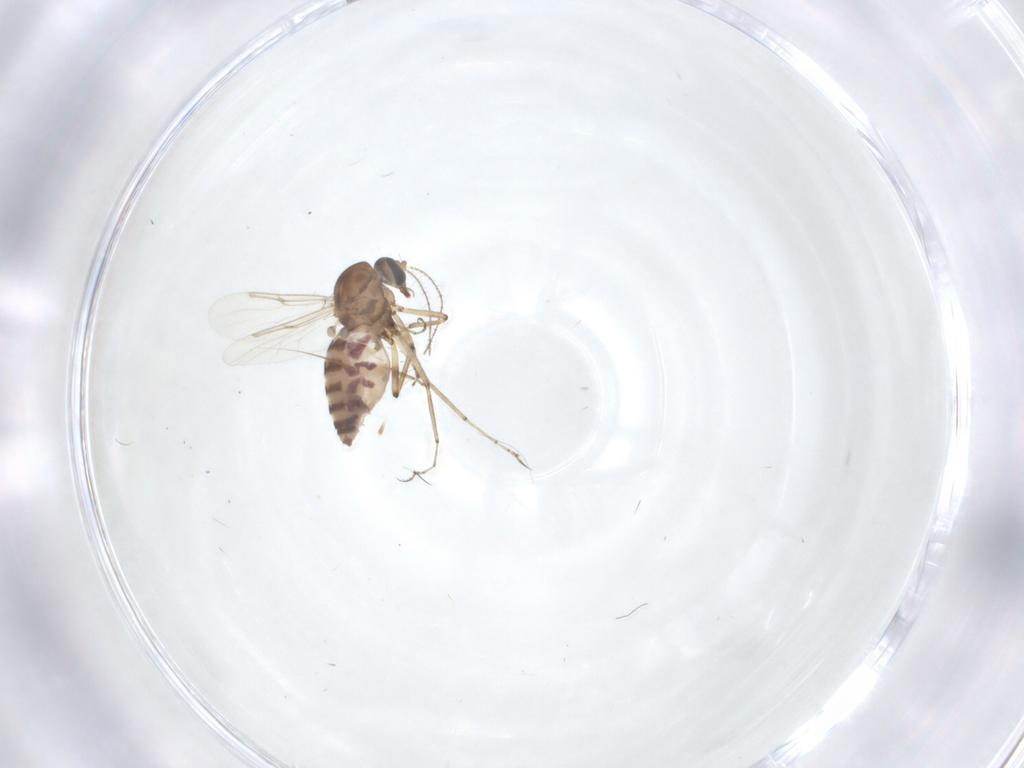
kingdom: Animalia
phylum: Arthropoda
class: Insecta
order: Diptera
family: Ceratopogonidae
